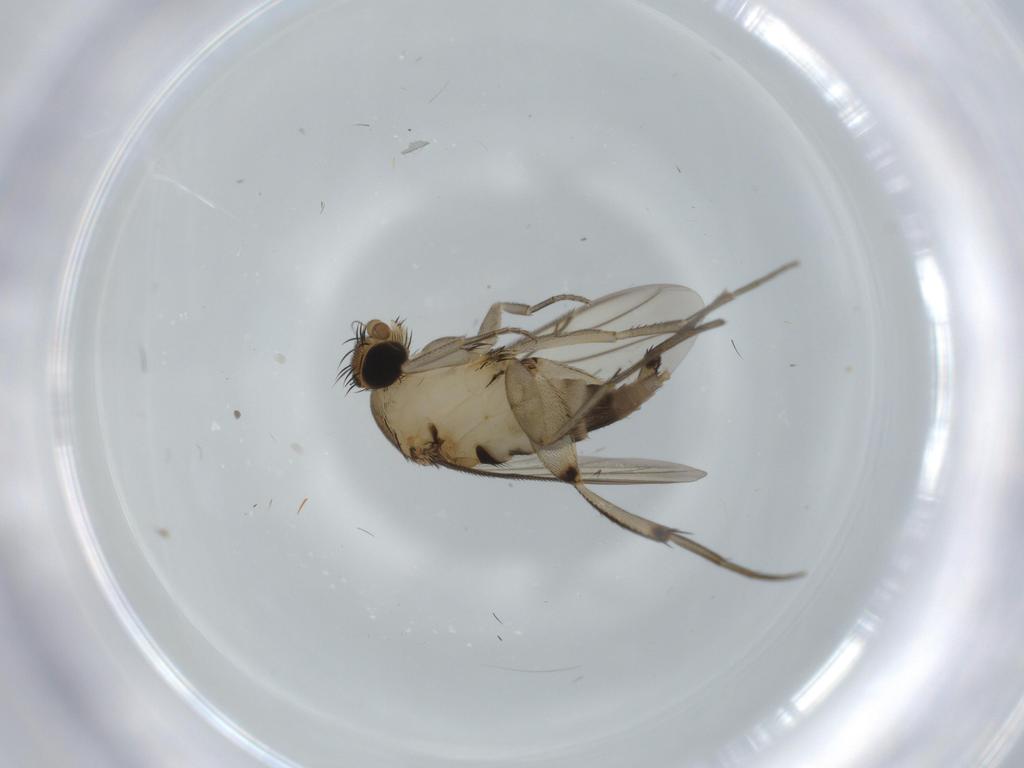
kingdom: Animalia
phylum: Arthropoda
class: Insecta
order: Diptera
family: Phoridae
